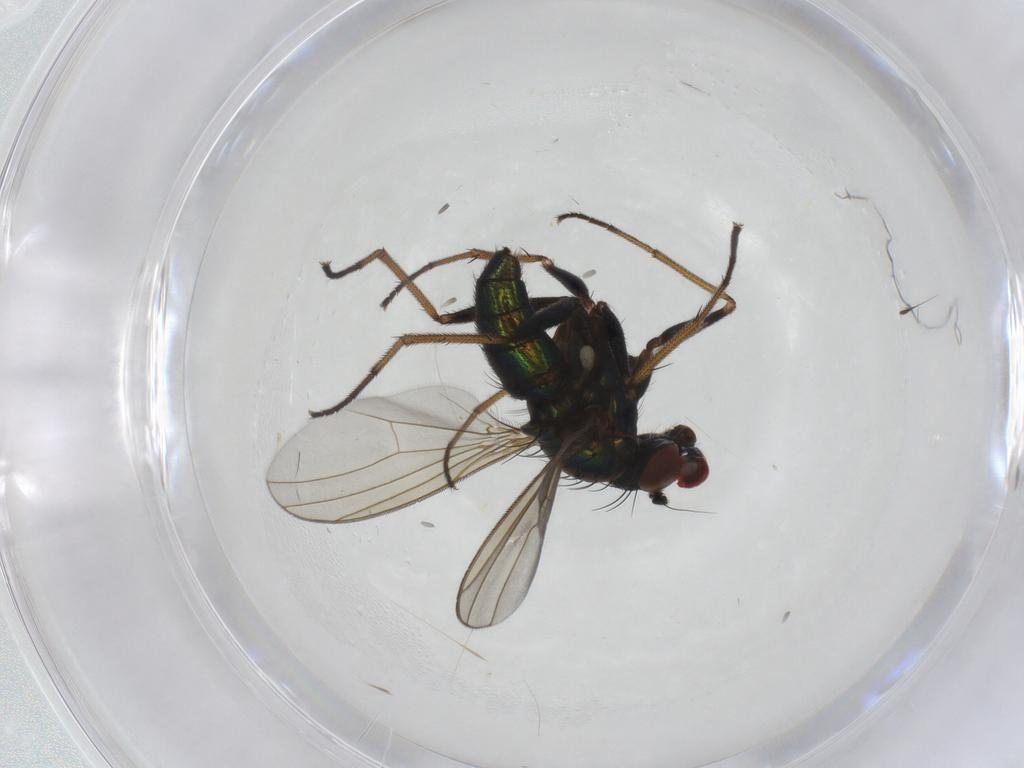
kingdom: Animalia
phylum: Arthropoda
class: Insecta
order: Diptera
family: Dolichopodidae
